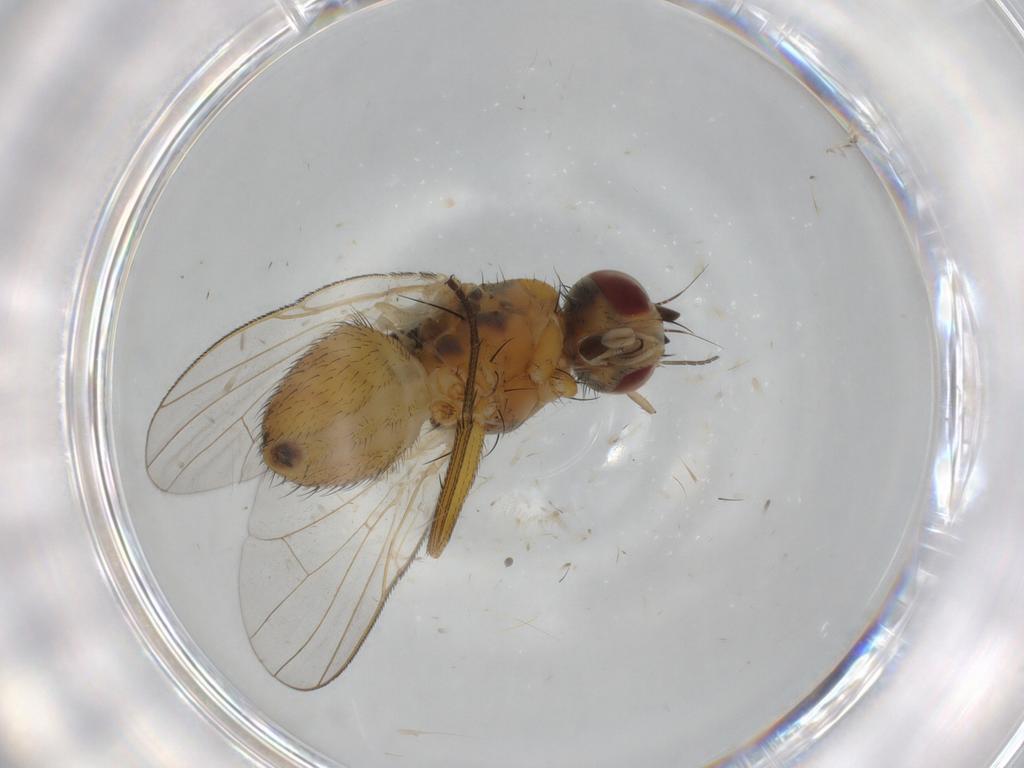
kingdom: Animalia
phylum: Arthropoda
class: Insecta
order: Diptera
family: Muscidae
